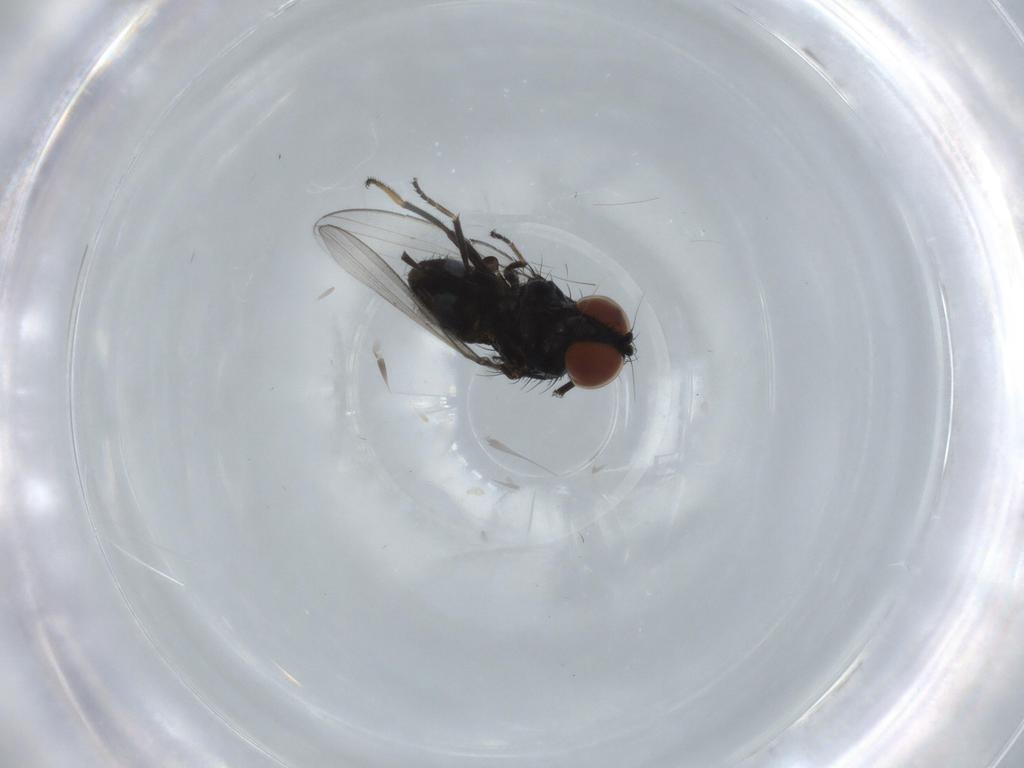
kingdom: Animalia
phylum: Arthropoda
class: Insecta
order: Diptera
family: Milichiidae
